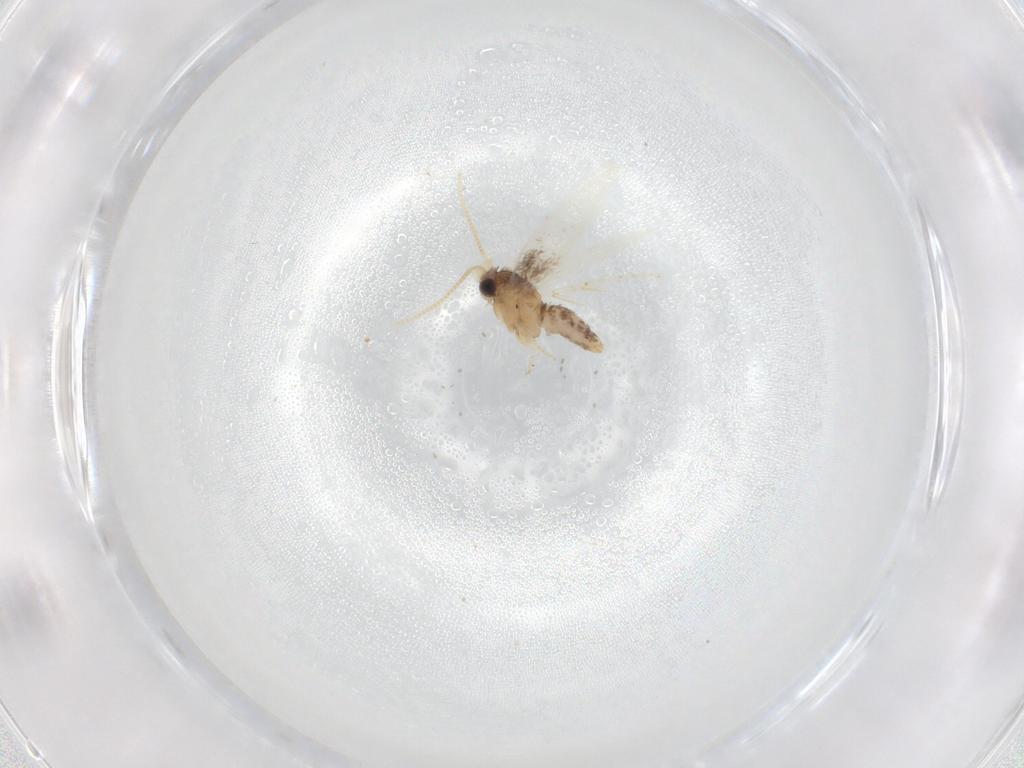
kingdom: Animalia
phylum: Arthropoda
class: Insecta
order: Lepidoptera
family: Nepticulidae
